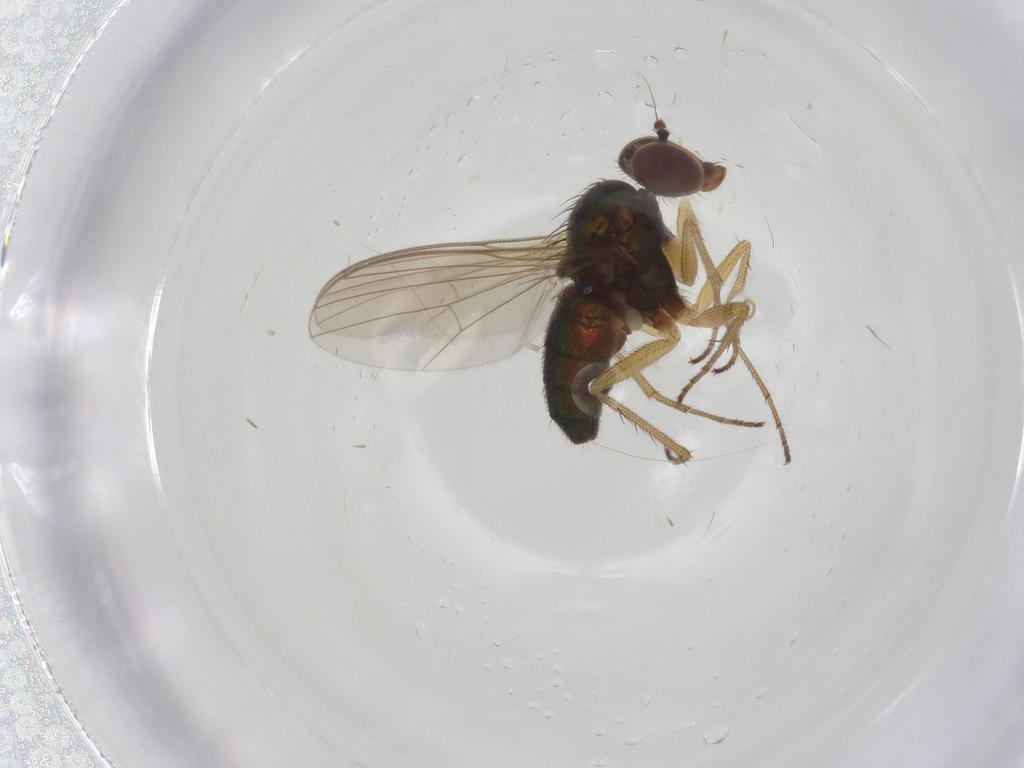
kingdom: Animalia
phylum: Arthropoda
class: Insecta
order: Diptera
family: Dolichopodidae
